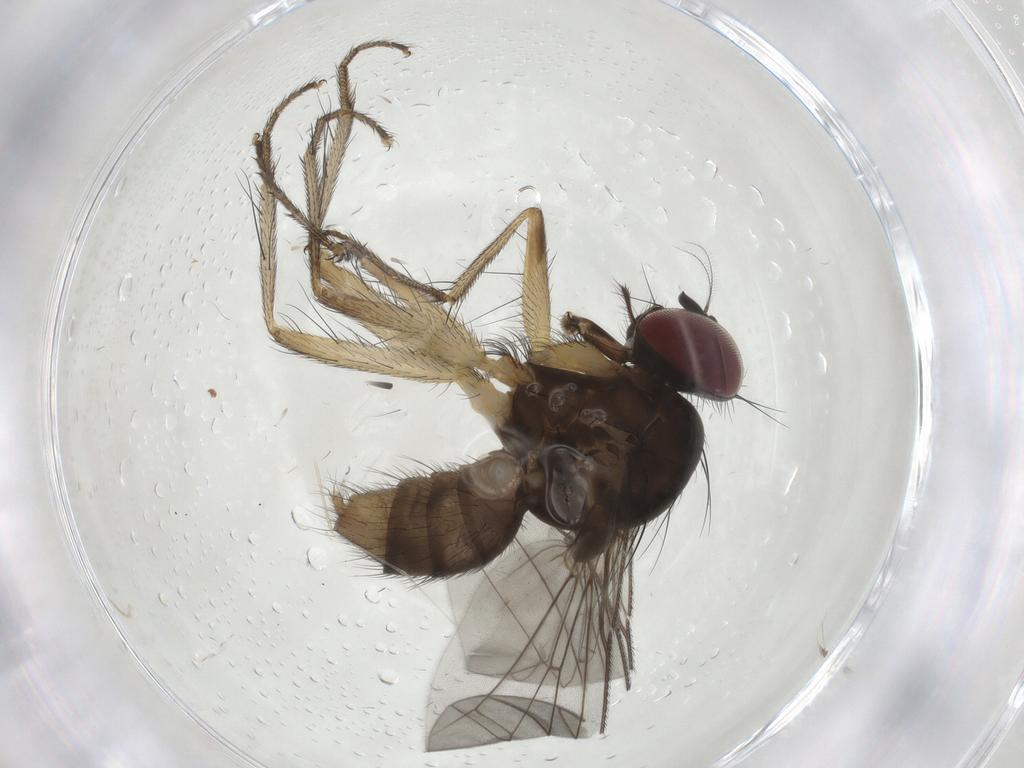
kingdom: Animalia
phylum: Arthropoda
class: Insecta
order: Diptera
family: Anthomyiidae
